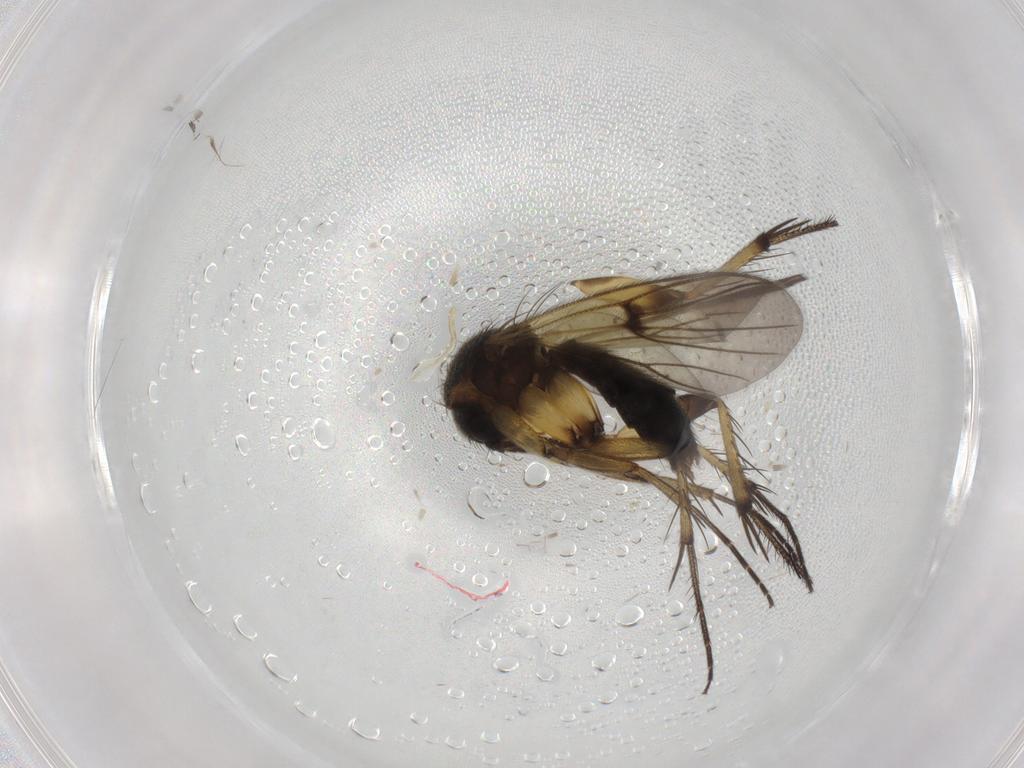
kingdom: Animalia
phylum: Arthropoda
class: Insecta
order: Diptera
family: Mycetophilidae
